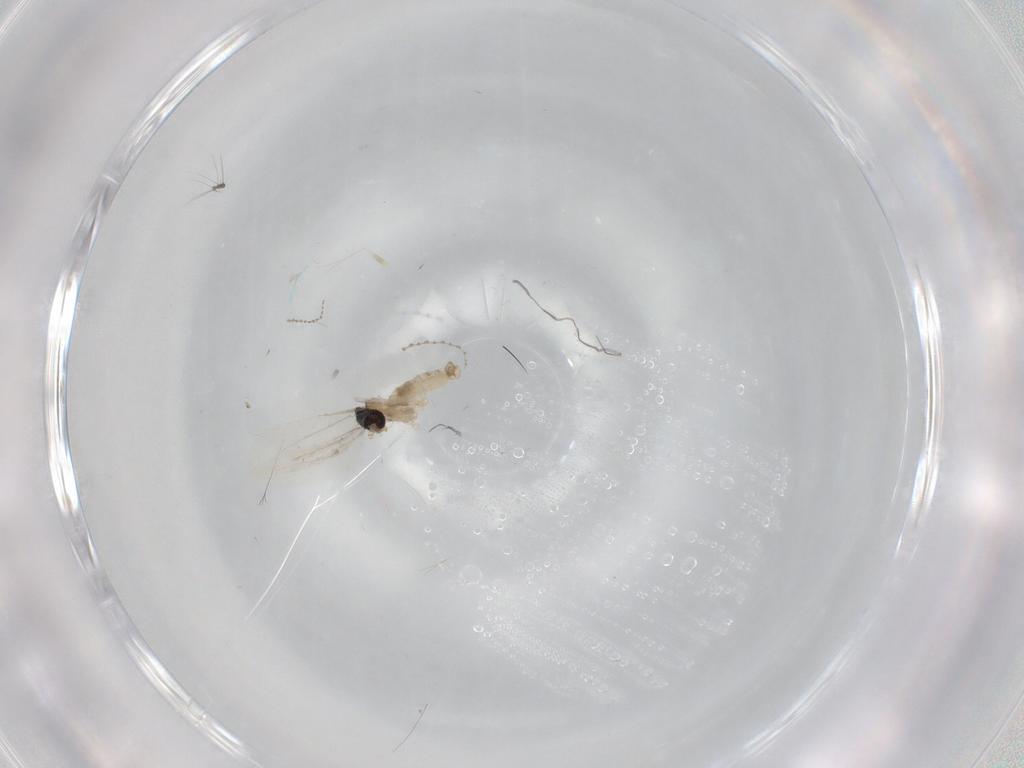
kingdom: Animalia
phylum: Arthropoda
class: Insecta
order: Diptera
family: Cecidomyiidae
